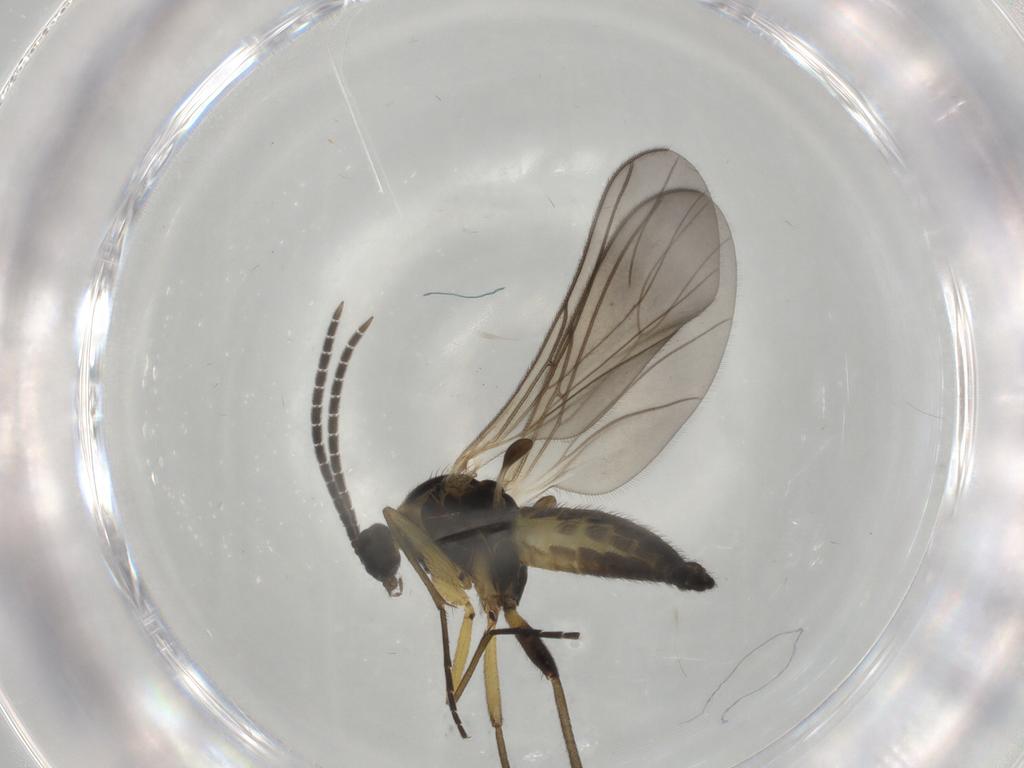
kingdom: Animalia
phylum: Arthropoda
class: Insecta
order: Diptera
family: Sciaridae
